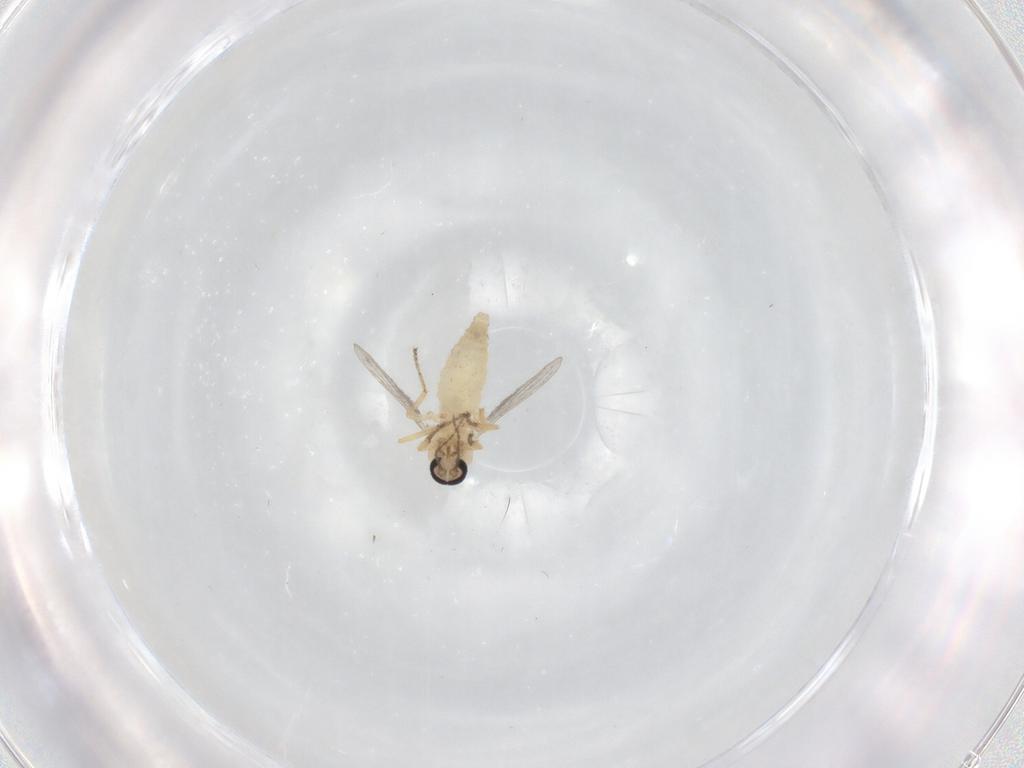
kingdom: Animalia
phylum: Arthropoda
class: Insecta
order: Diptera
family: Ceratopogonidae
